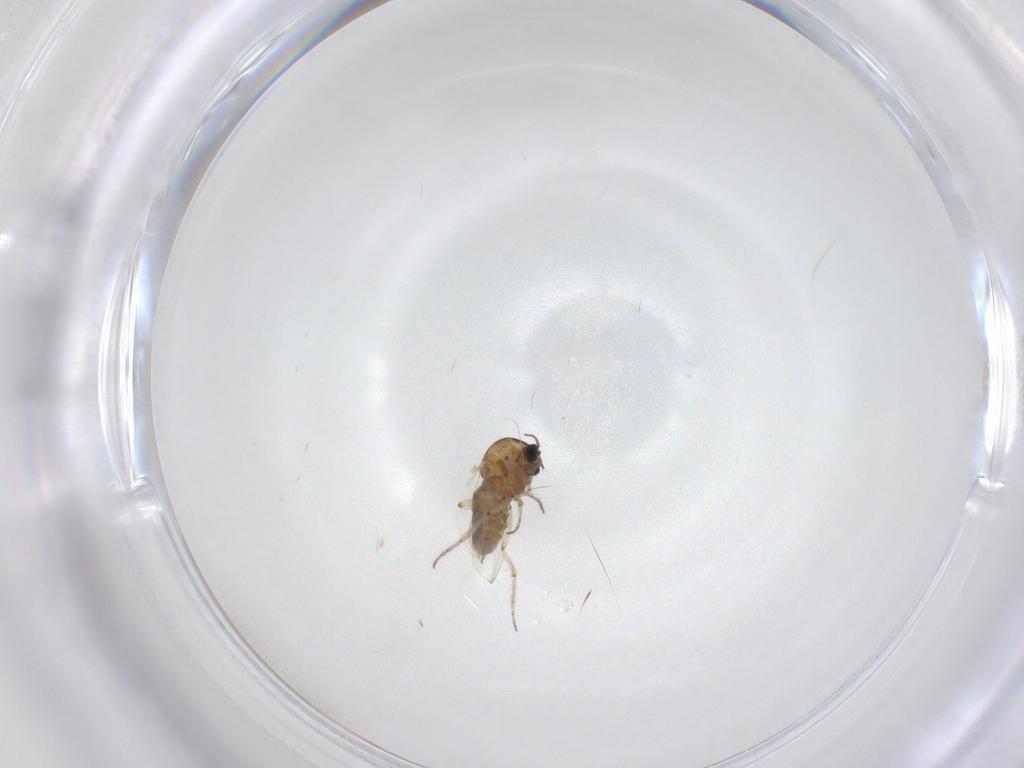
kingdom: Animalia
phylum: Arthropoda
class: Insecta
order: Diptera
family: Ceratopogonidae
